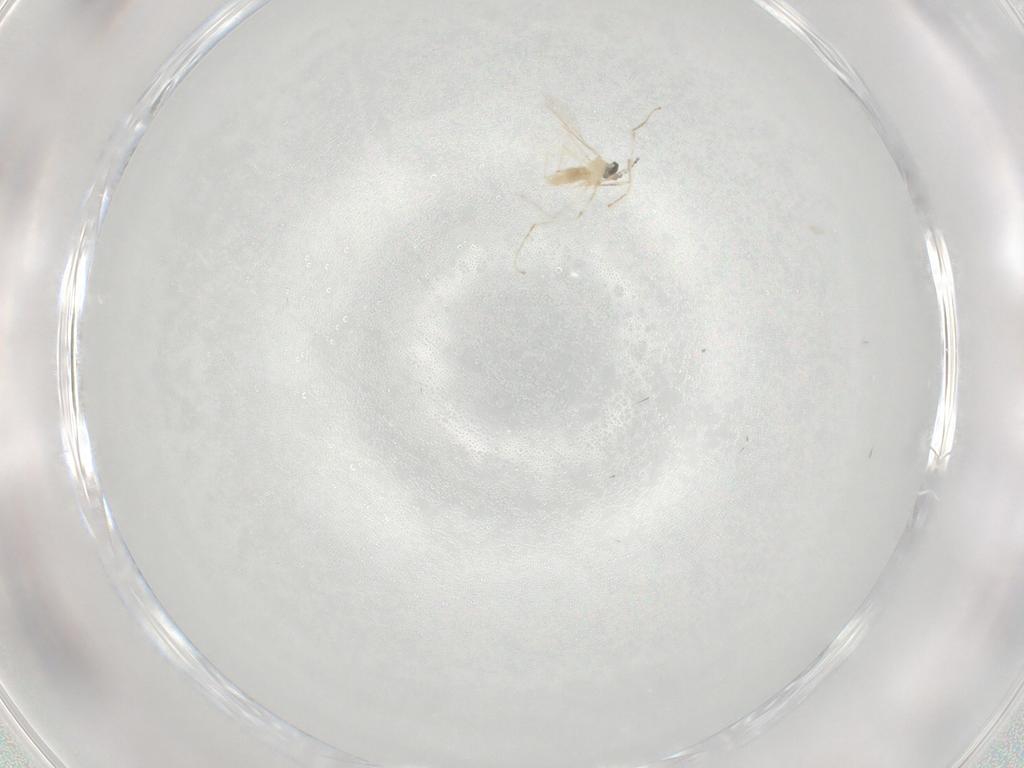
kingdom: Animalia
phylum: Arthropoda
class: Insecta
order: Diptera
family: Cecidomyiidae
